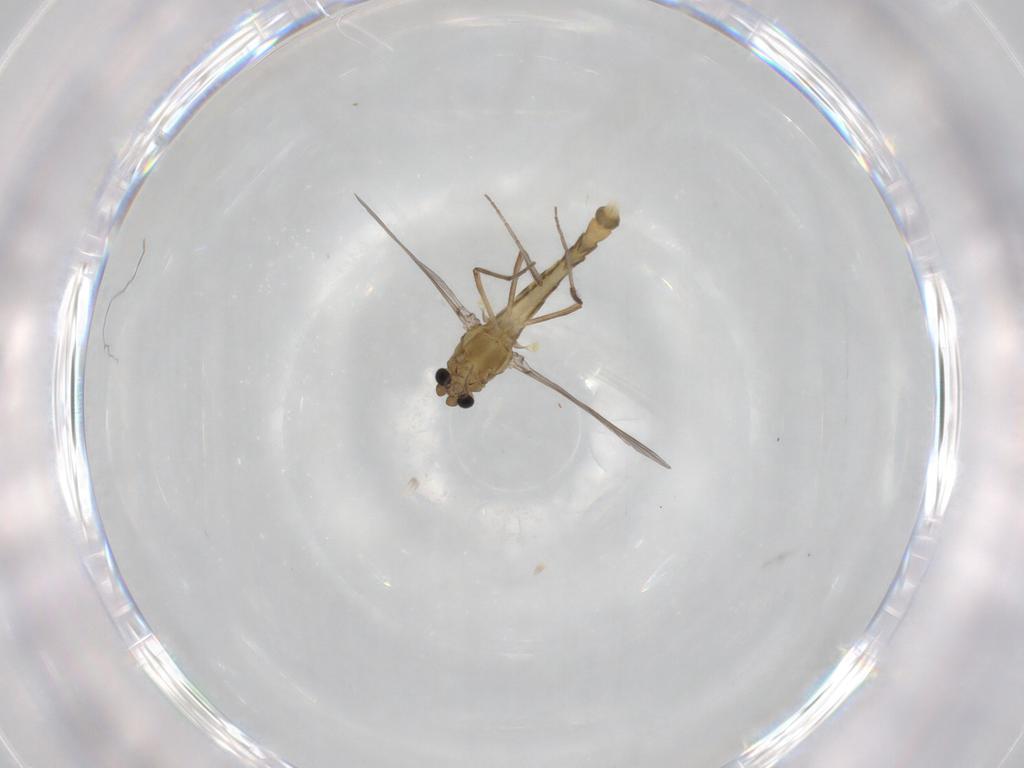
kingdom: Animalia
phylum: Arthropoda
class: Insecta
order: Diptera
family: Chironomidae
